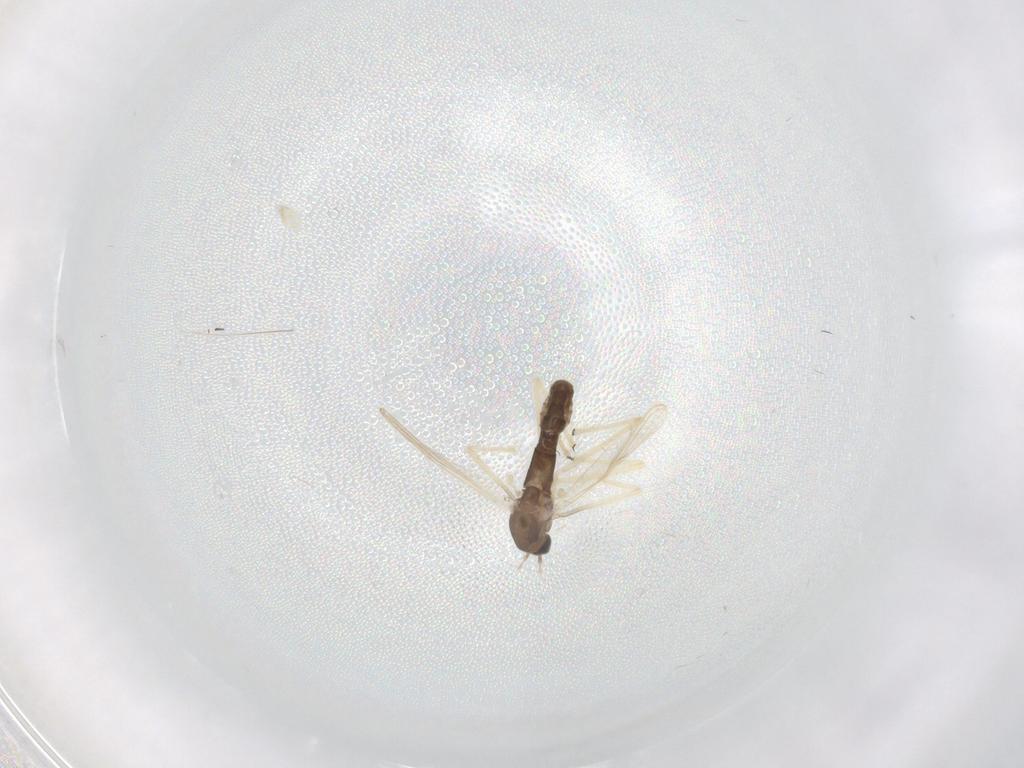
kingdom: Animalia
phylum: Arthropoda
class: Insecta
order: Diptera
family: Chironomidae
